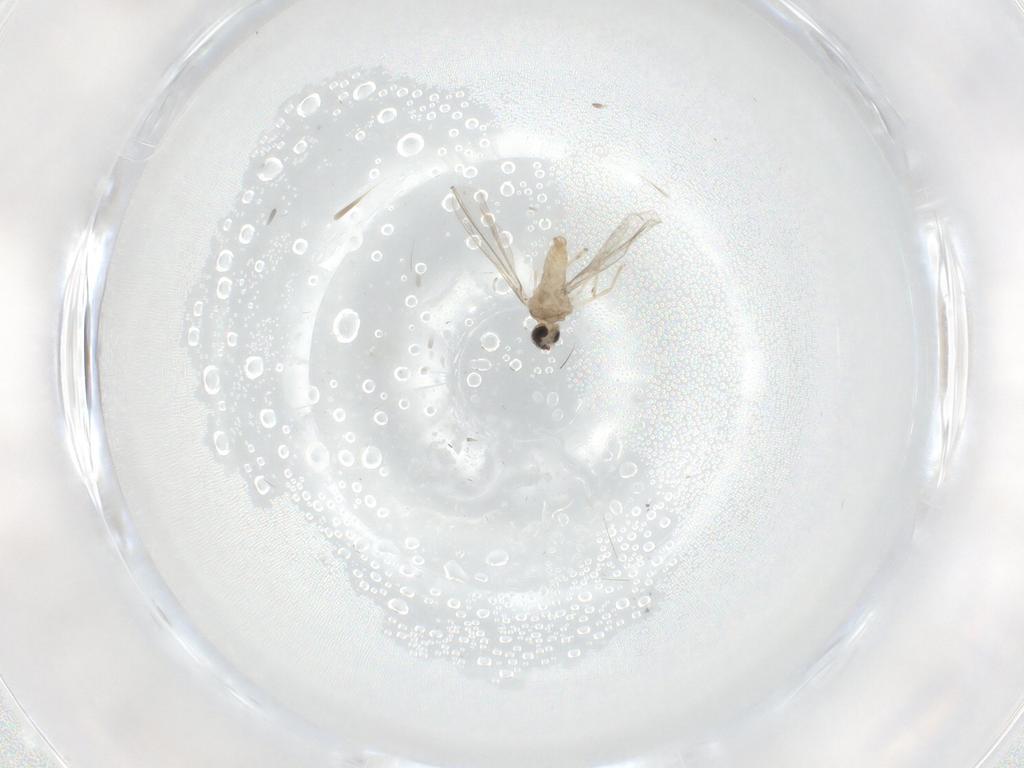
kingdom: Animalia
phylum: Arthropoda
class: Insecta
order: Diptera
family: Cecidomyiidae
